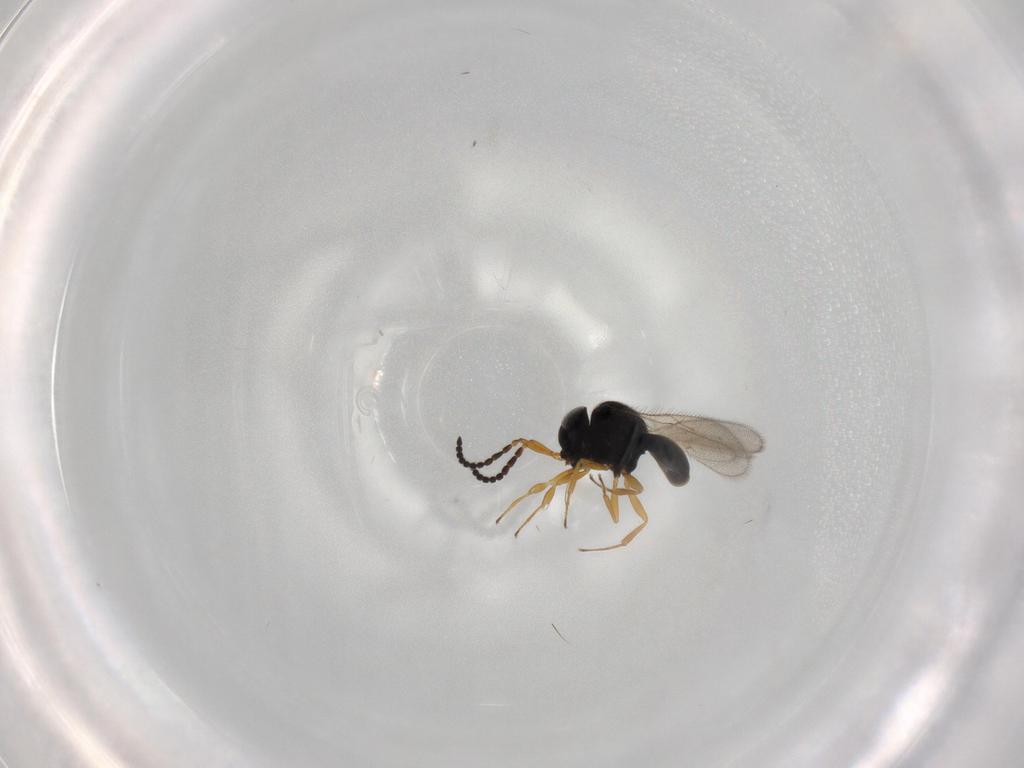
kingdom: Animalia
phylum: Arthropoda
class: Insecta
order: Hymenoptera
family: Scelionidae
